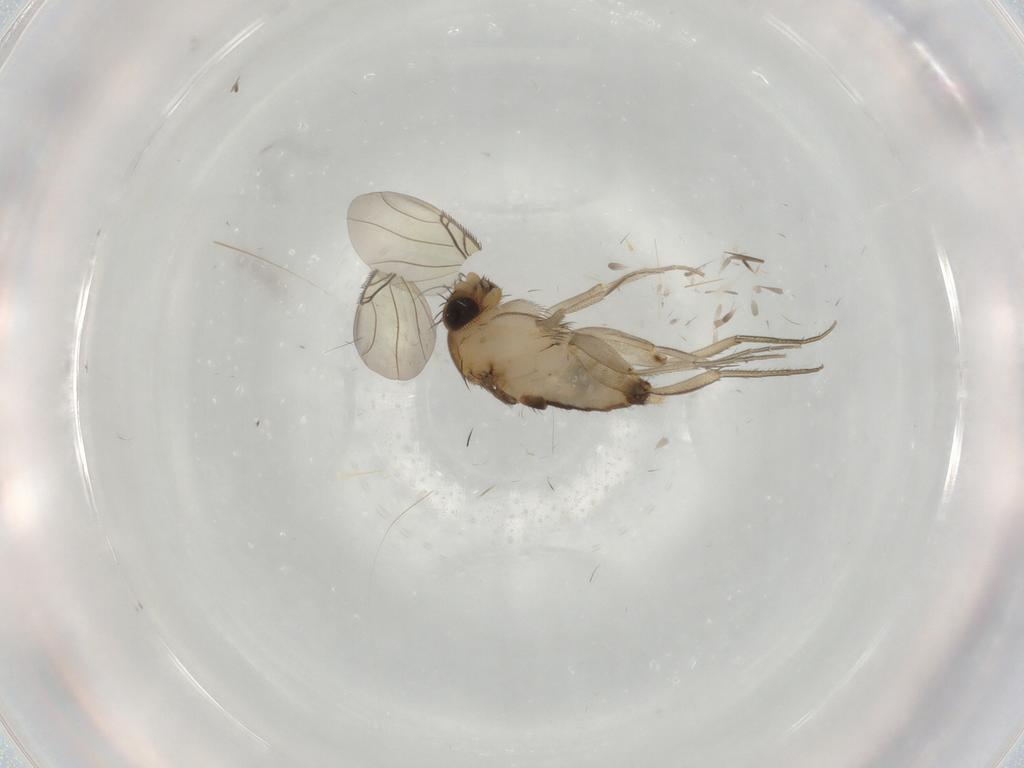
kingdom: Animalia
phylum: Arthropoda
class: Insecta
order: Diptera
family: Phoridae
